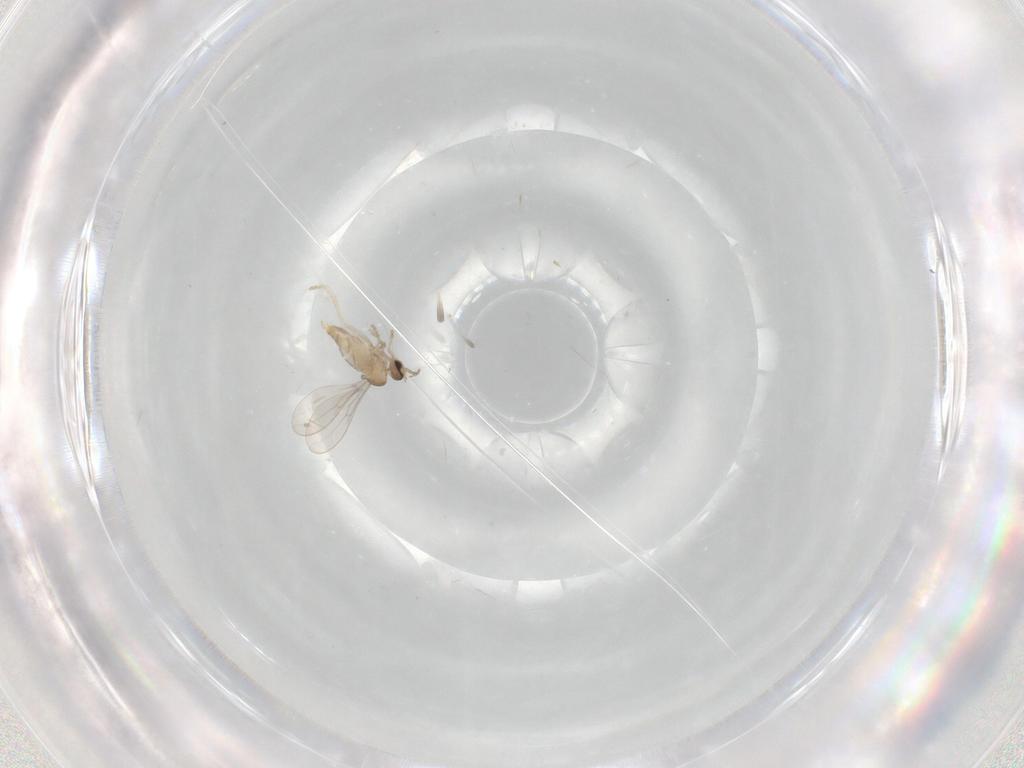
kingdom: Animalia
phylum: Arthropoda
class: Insecta
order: Diptera
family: Cecidomyiidae
